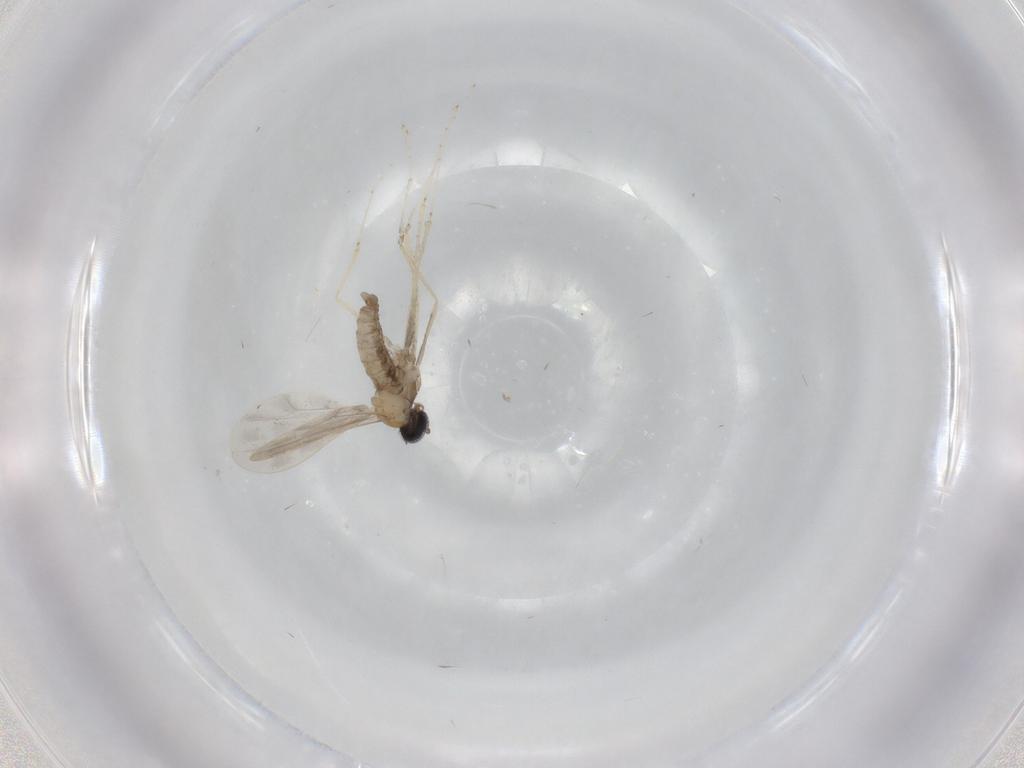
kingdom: Animalia
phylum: Arthropoda
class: Insecta
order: Diptera
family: Cecidomyiidae
